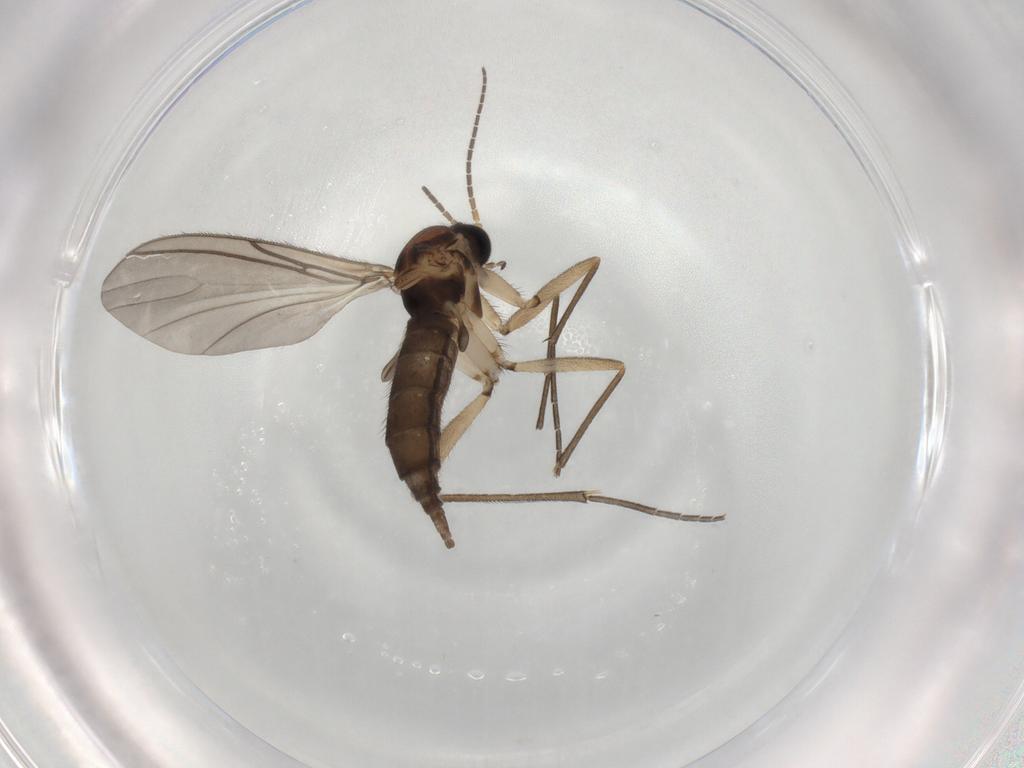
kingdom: Animalia
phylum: Arthropoda
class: Insecta
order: Diptera
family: Sciaridae
